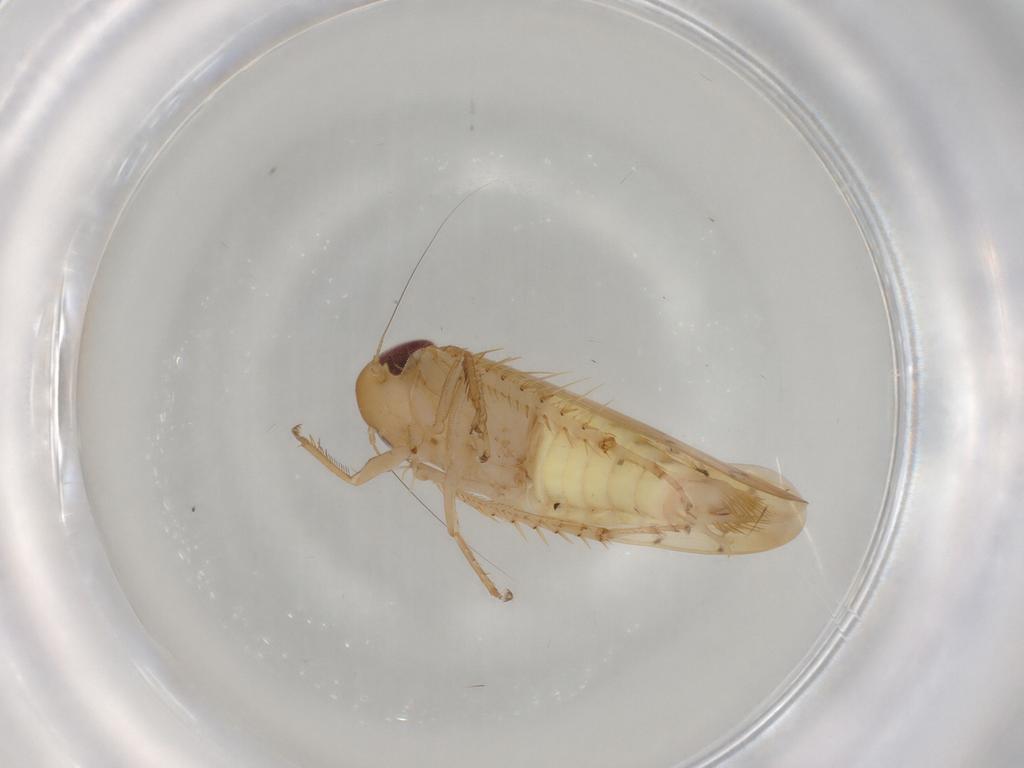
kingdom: Animalia
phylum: Arthropoda
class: Insecta
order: Hemiptera
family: Cicadellidae
